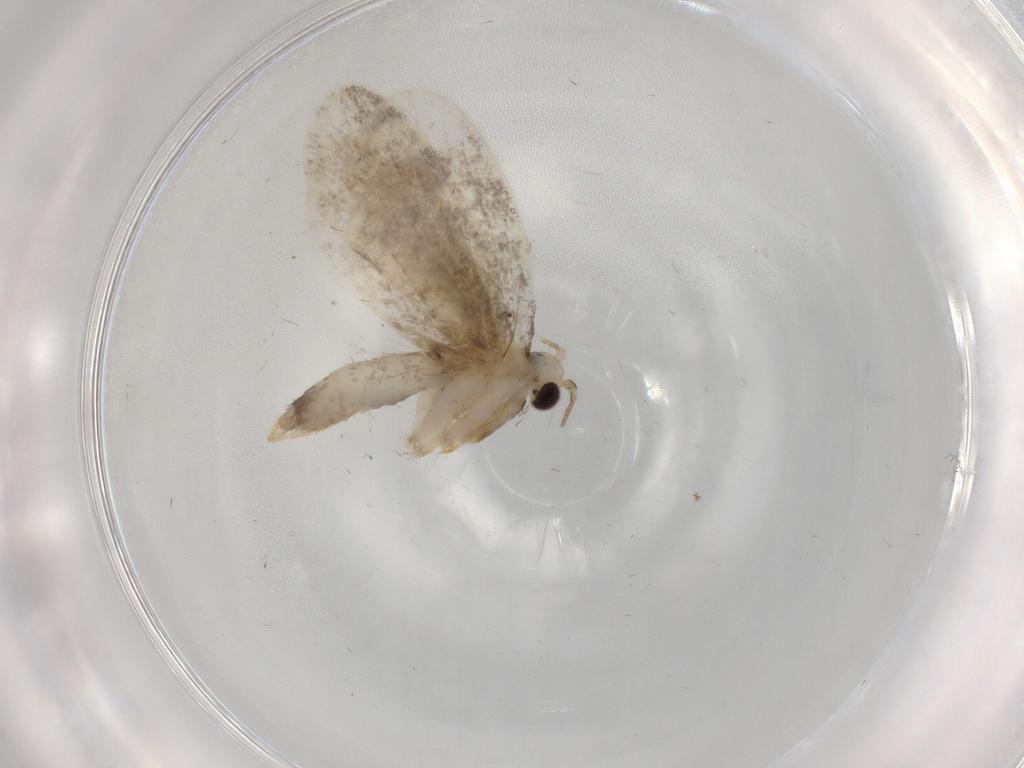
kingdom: Animalia
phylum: Arthropoda
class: Insecta
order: Lepidoptera
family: Psychidae
